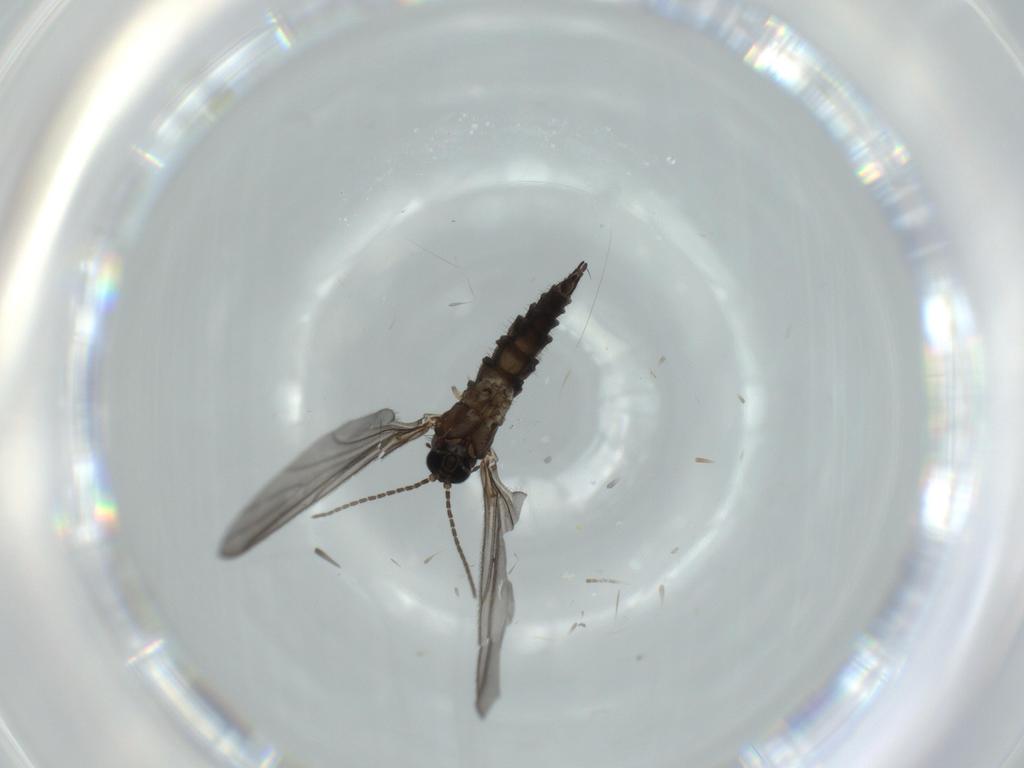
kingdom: Animalia
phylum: Arthropoda
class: Insecta
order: Diptera
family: Sciaridae
